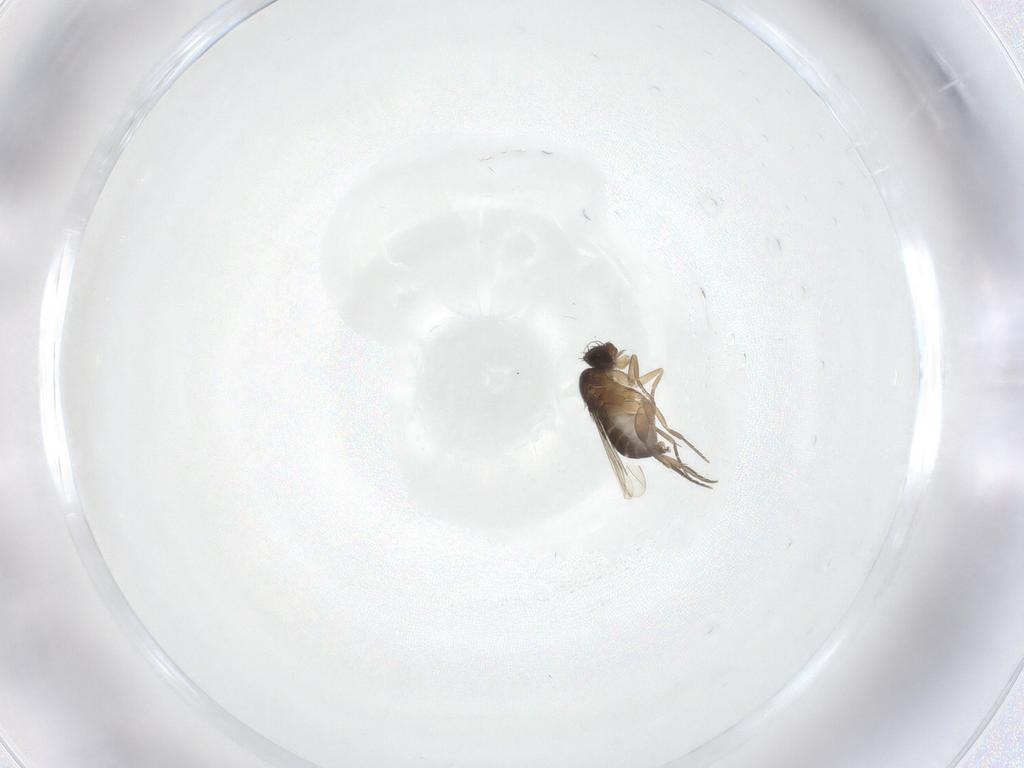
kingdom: Animalia
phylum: Arthropoda
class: Insecta
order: Diptera
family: Phoridae
